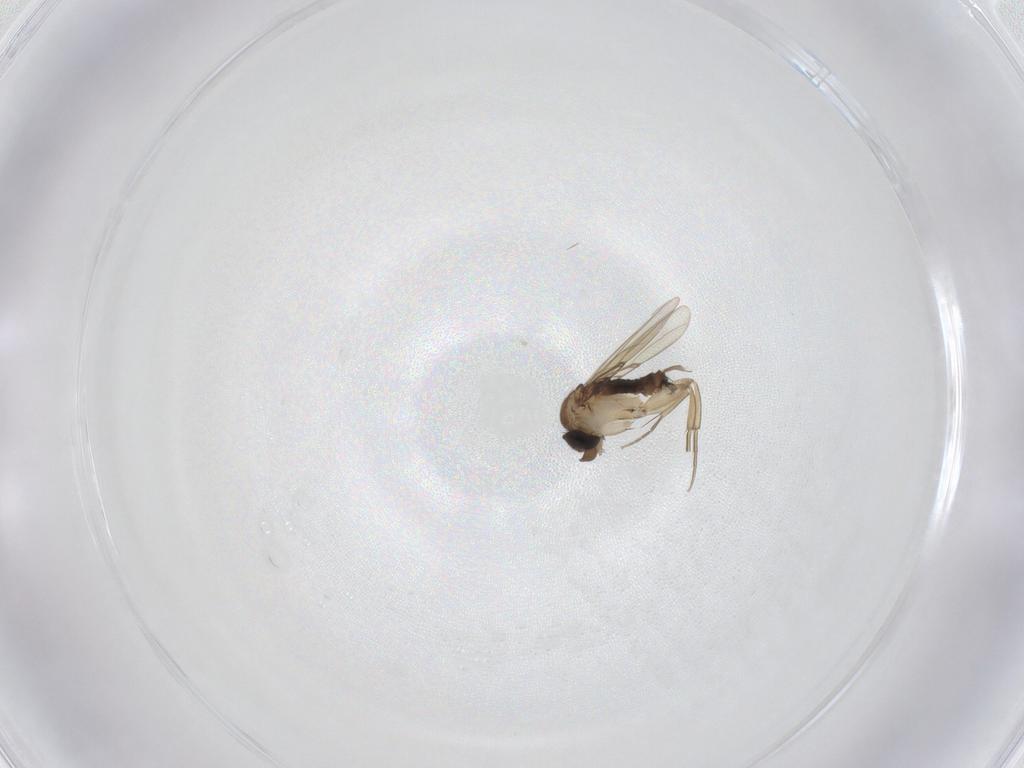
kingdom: Animalia
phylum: Arthropoda
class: Insecta
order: Diptera
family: Phoridae
